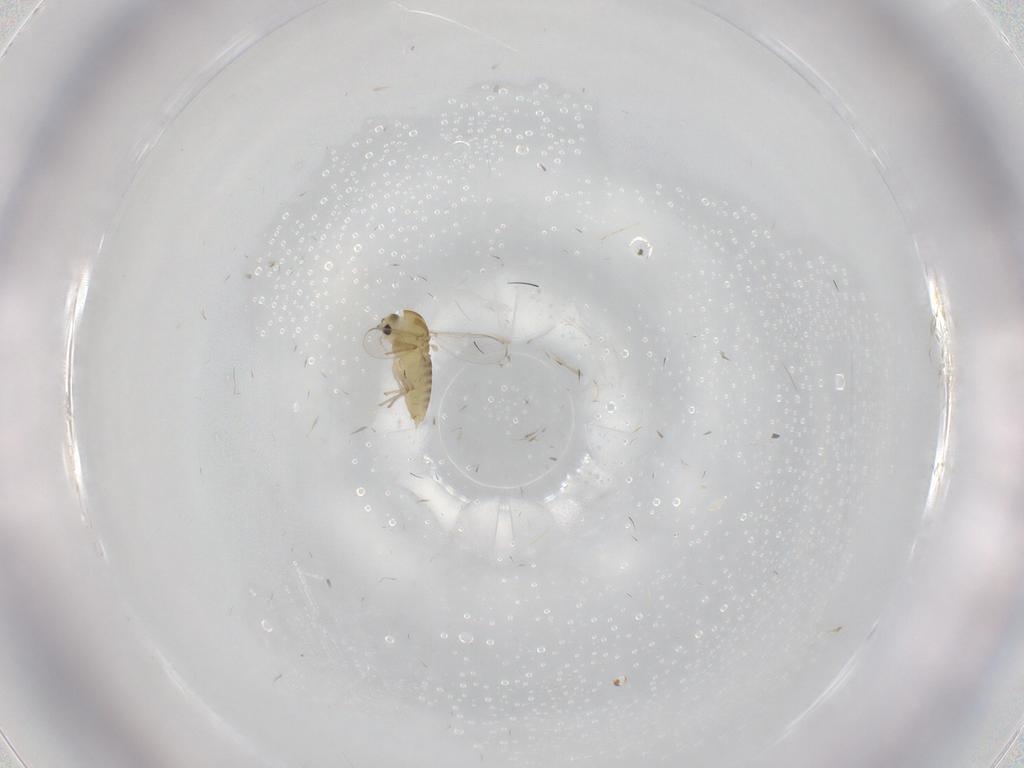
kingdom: Animalia
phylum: Arthropoda
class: Insecta
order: Diptera
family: Chironomidae
